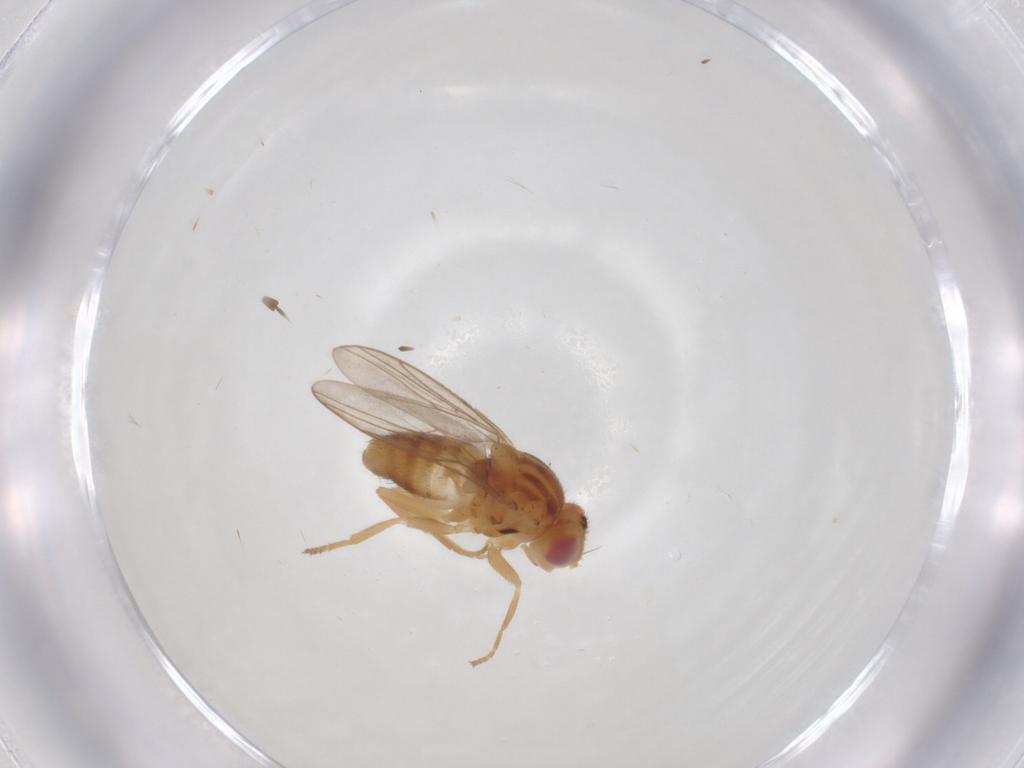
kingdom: Animalia
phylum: Arthropoda
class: Insecta
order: Diptera
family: Chloropidae
